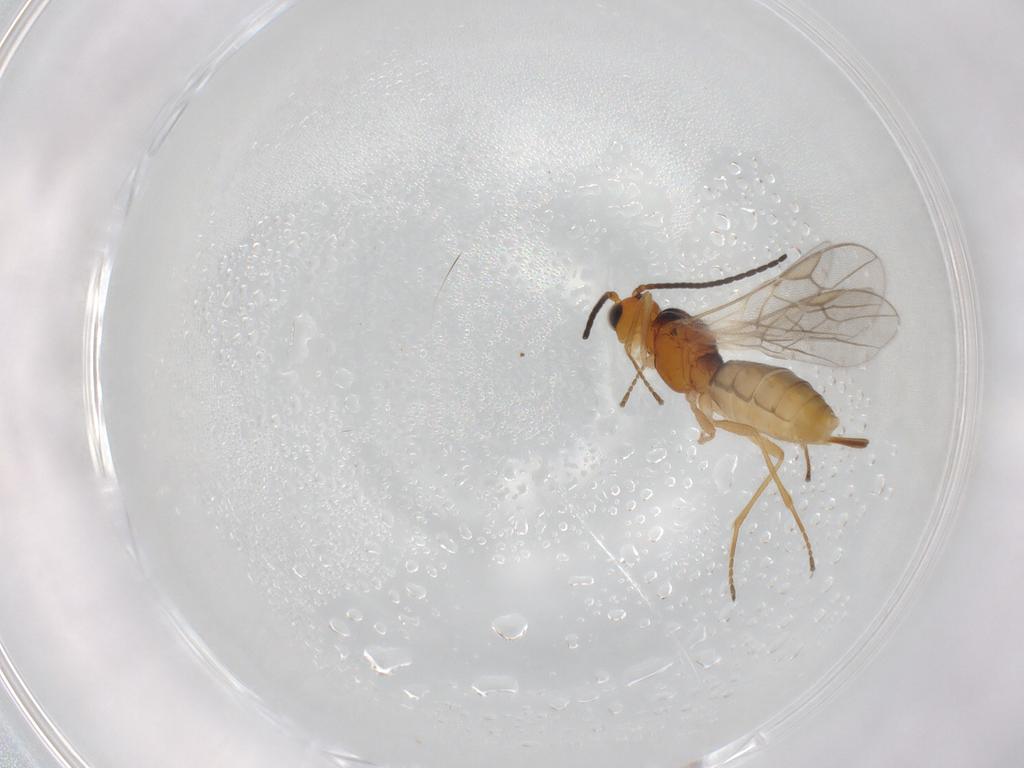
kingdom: Animalia
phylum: Arthropoda
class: Insecta
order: Hymenoptera
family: Braconidae
